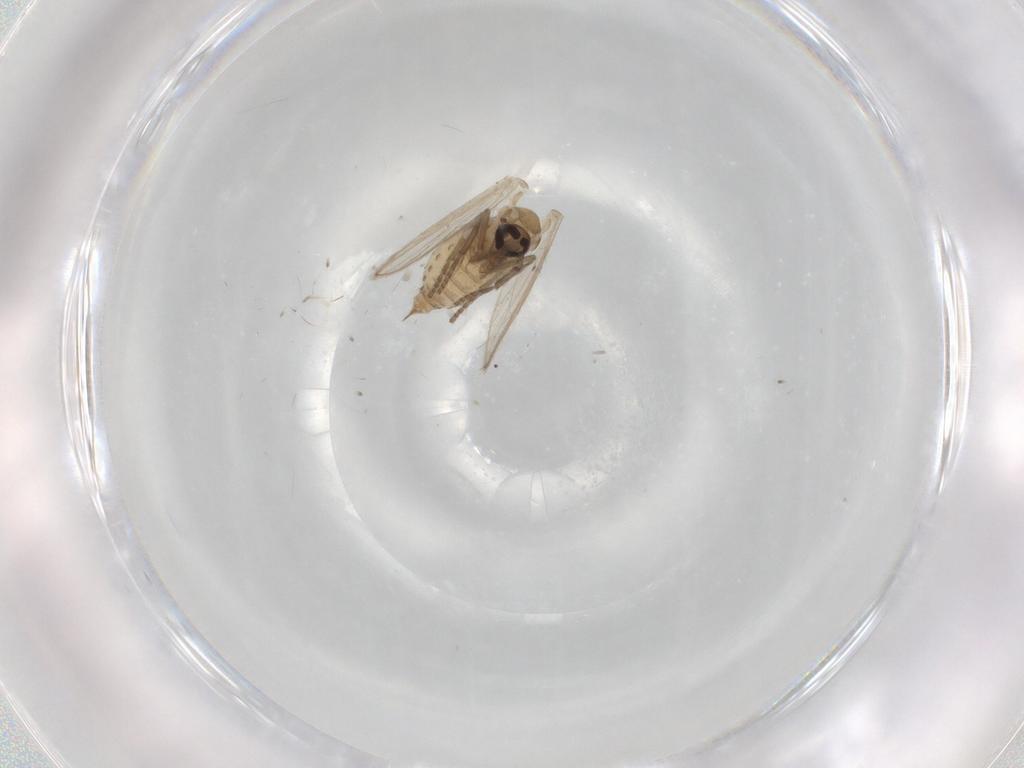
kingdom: Animalia
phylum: Arthropoda
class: Insecta
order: Diptera
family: Psychodidae
